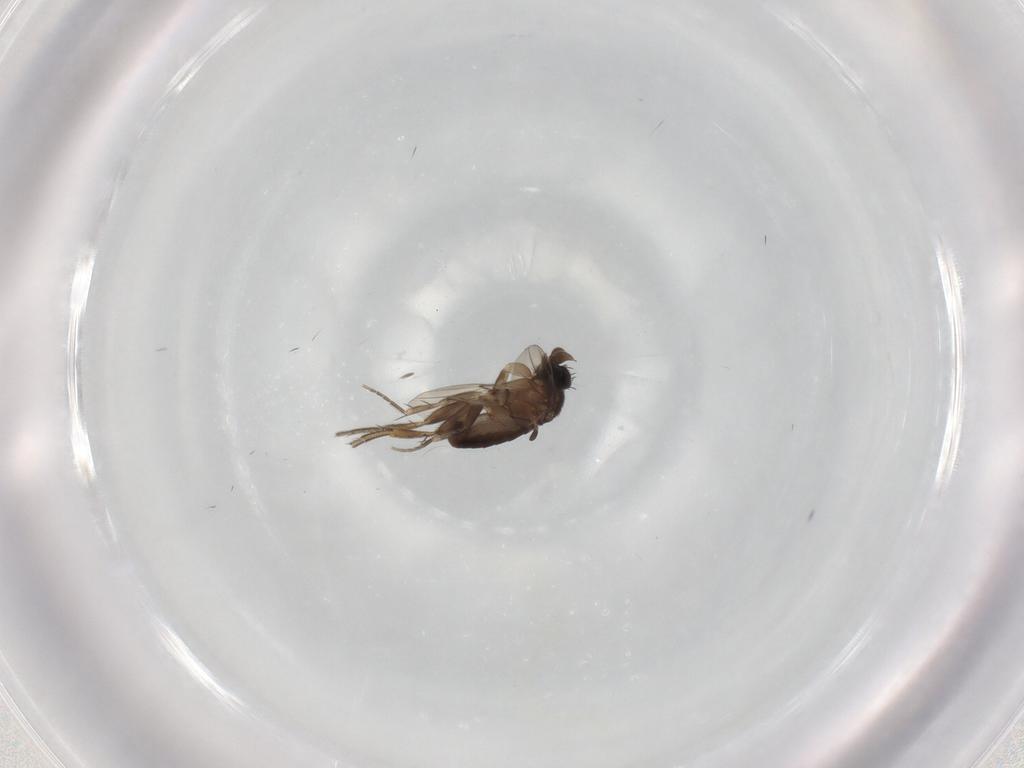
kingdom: Animalia
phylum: Arthropoda
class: Insecta
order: Diptera
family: Phoridae
